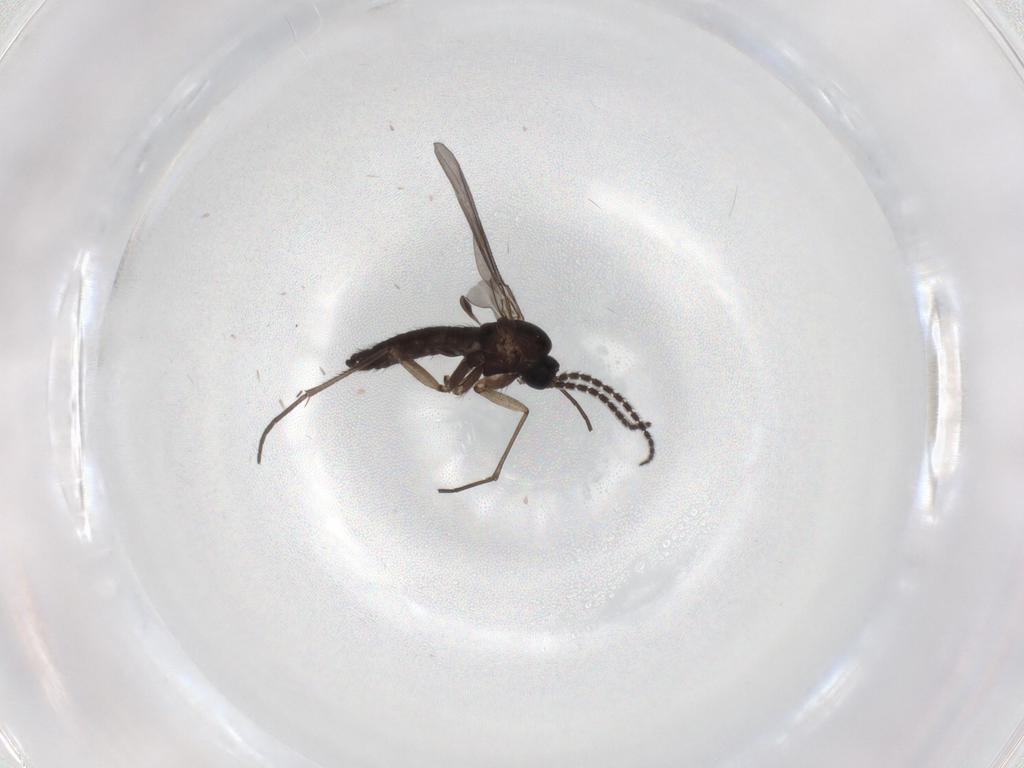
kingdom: Animalia
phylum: Arthropoda
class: Insecta
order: Diptera
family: Sciaridae
